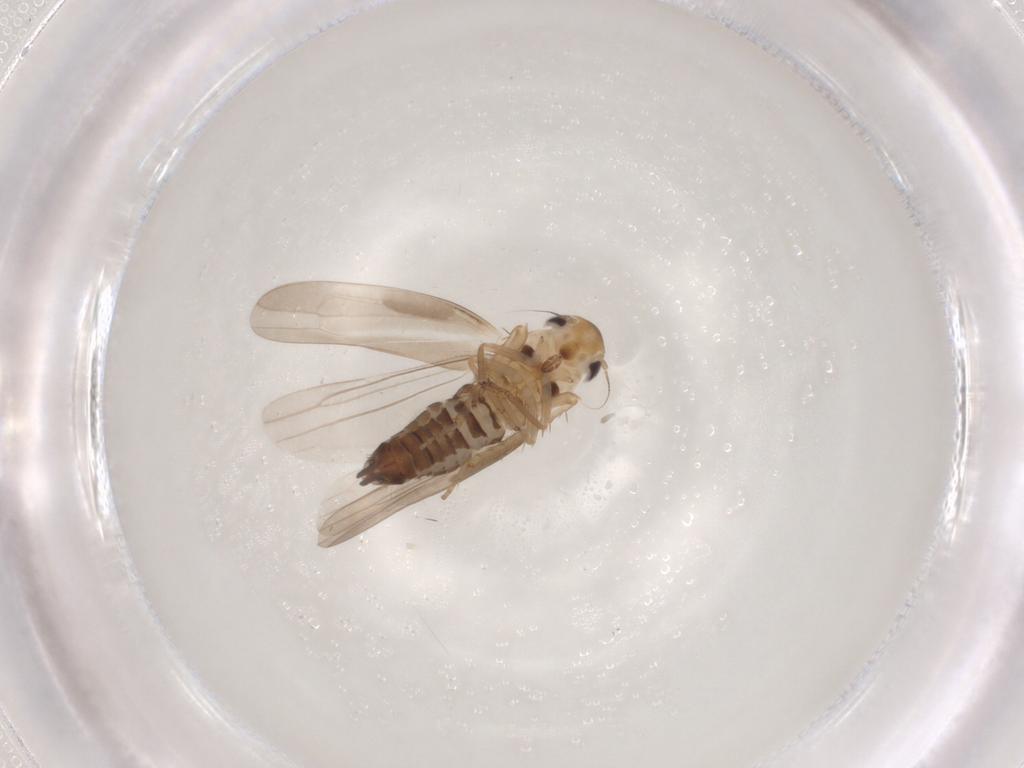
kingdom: Animalia
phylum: Arthropoda
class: Insecta
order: Hemiptera
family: Cicadellidae
